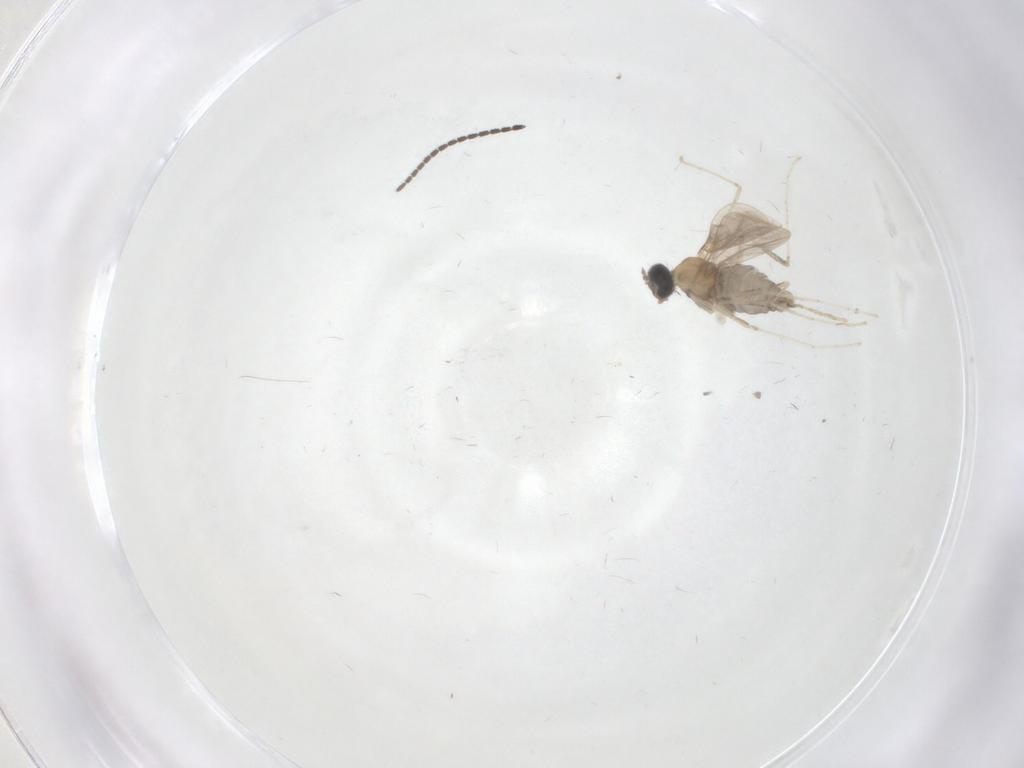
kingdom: Animalia
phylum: Arthropoda
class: Insecta
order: Diptera
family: Cecidomyiidae
